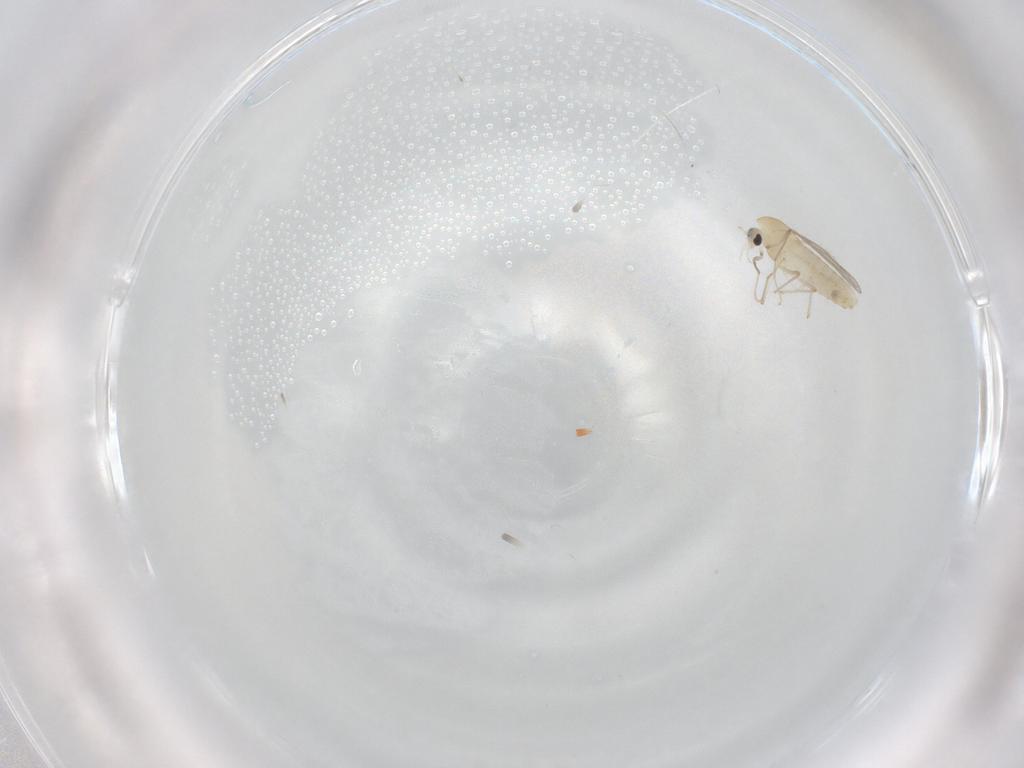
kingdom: Animalia
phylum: Arthropoda
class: Insecta
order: Diptera
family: Chironomidae
